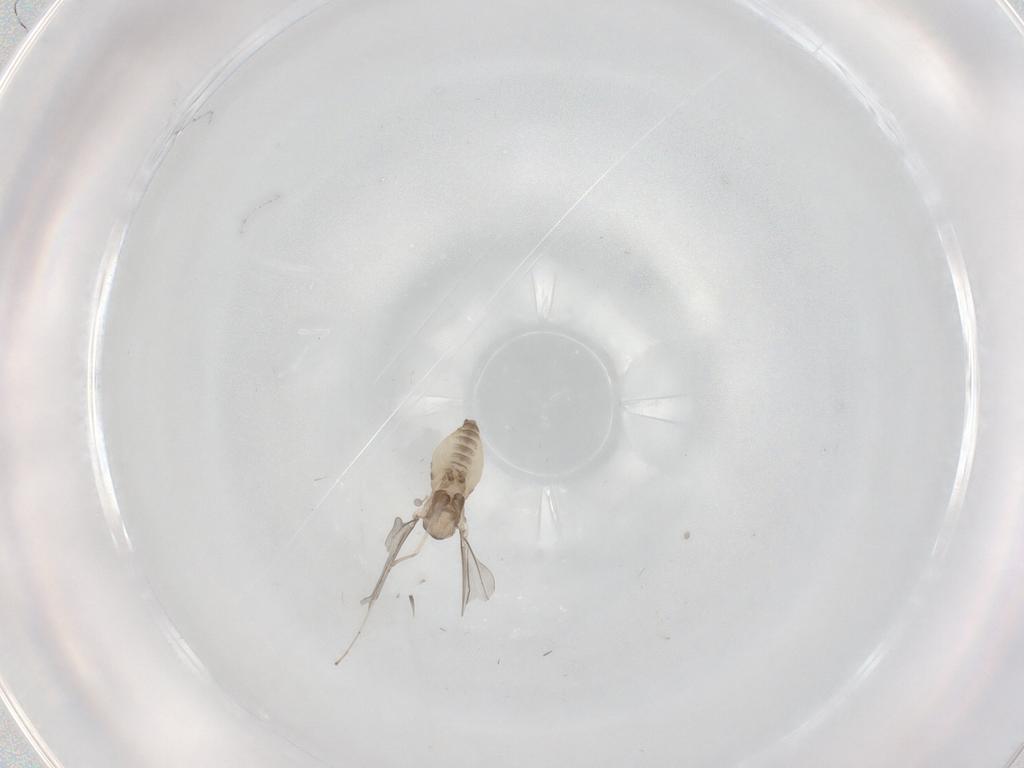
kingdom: Animalia
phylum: Arthropoda
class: Insecta
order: Diptera
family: Cecidomyiidae
